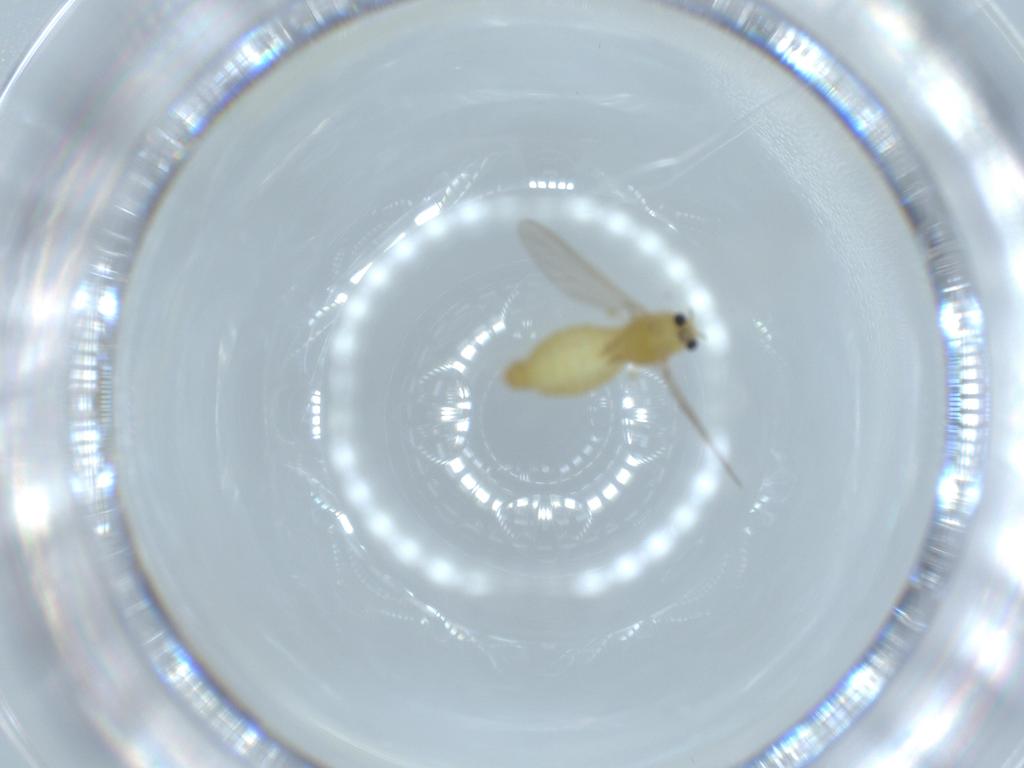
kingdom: Animalia
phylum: Arthropoda
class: Insecta
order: Diptera
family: Chironomidae
